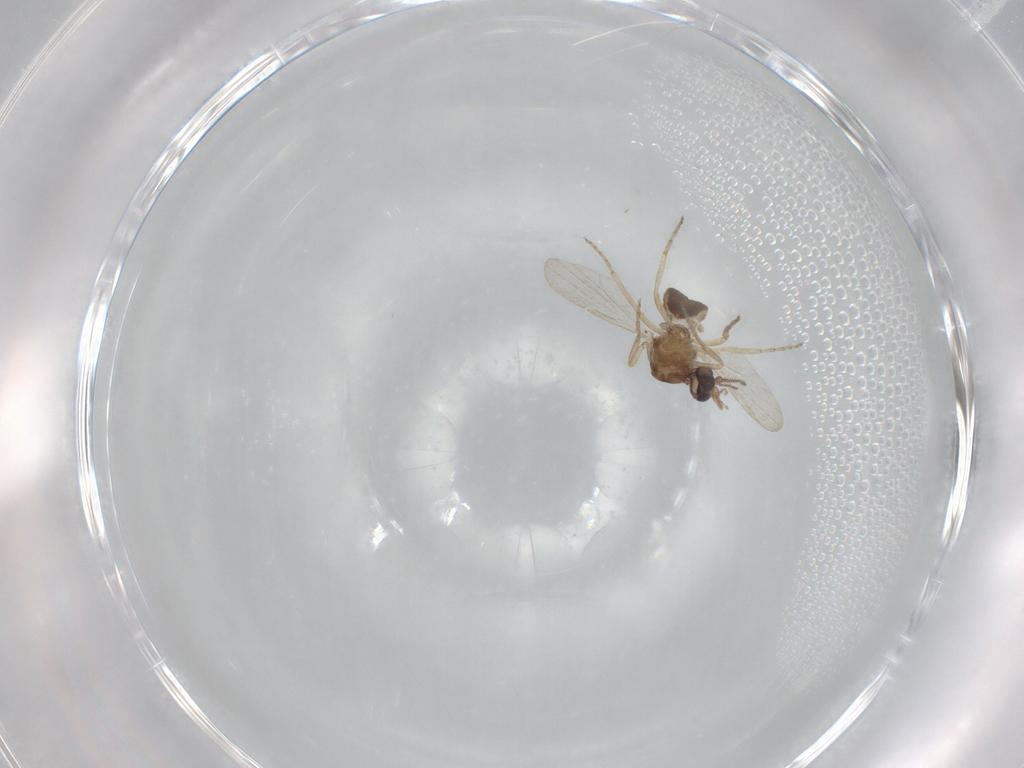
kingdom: Animalia
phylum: Arthropoda
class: Insecta
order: Diptera
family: Ceratopogonidae
